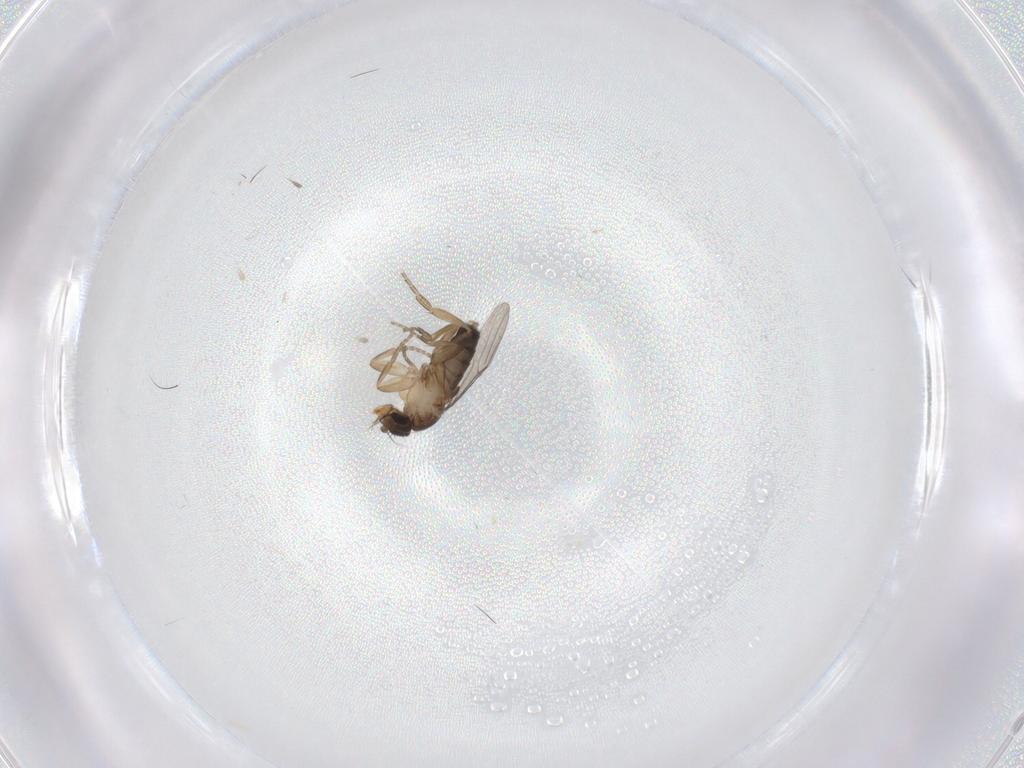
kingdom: Animalia
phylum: Arthropoda
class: Insecta
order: Diptera
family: Phoridae
